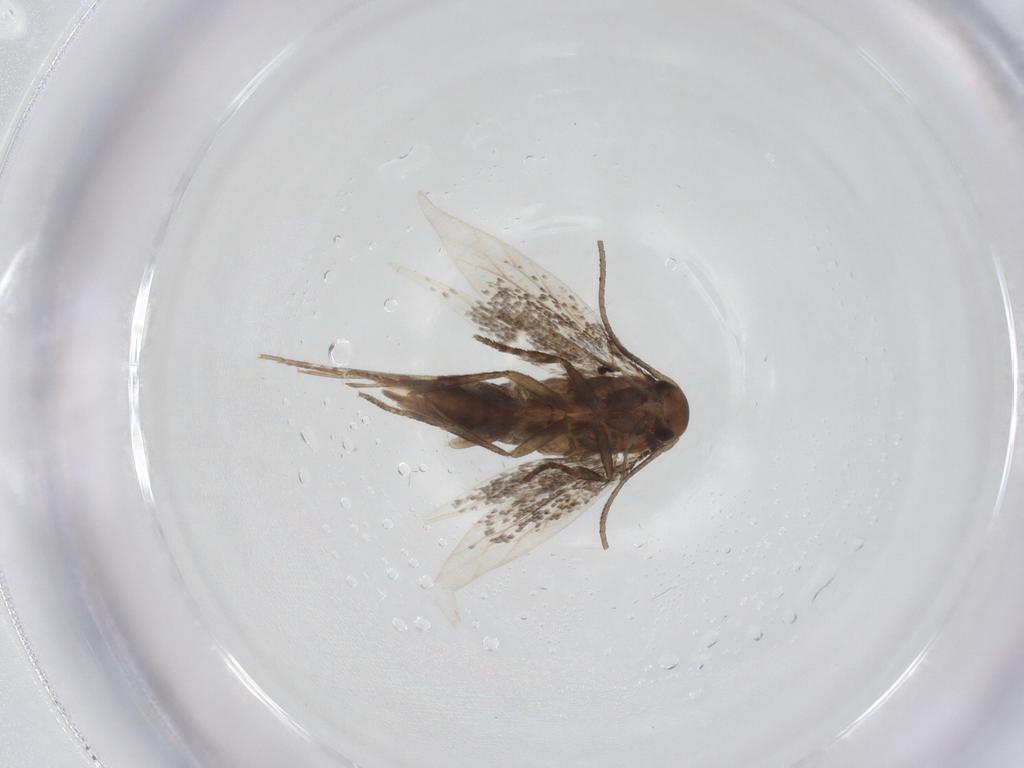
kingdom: Animalia
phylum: Arthropoda
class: Insecta
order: Lepidoptera
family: Elachistidae
